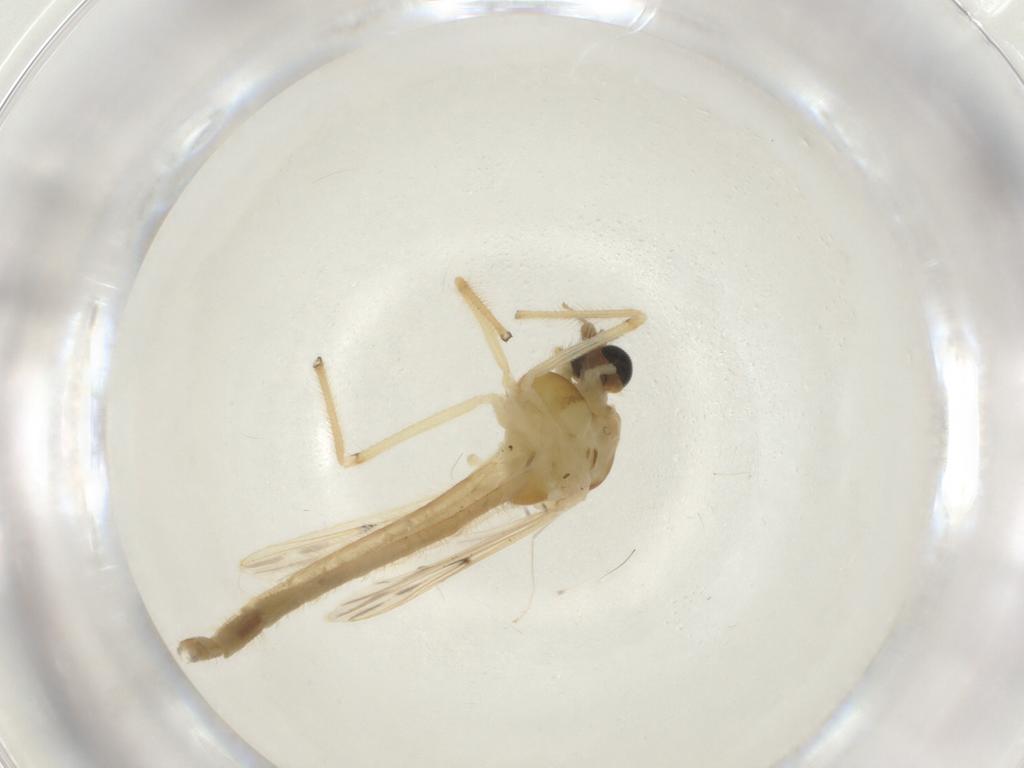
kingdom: Animalia
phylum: Arthropoda
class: Insecta
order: Diptera
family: Chironomidae
